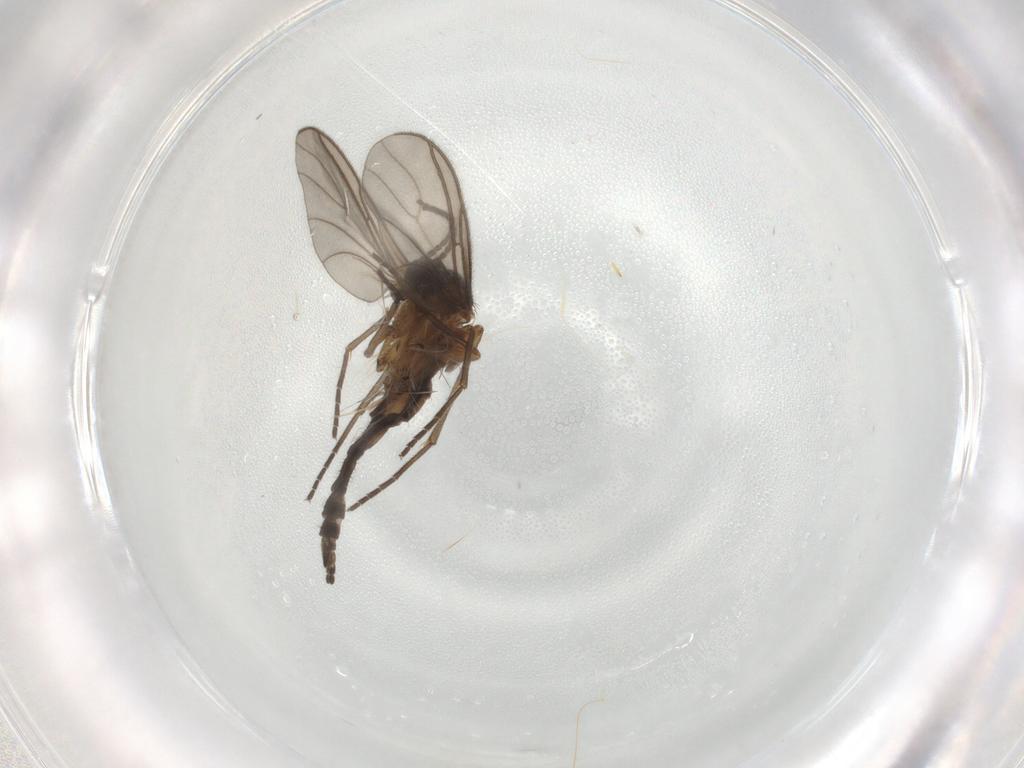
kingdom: Animalia
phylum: Arthropoda
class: Insecta
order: Diptera
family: Sciaridae
